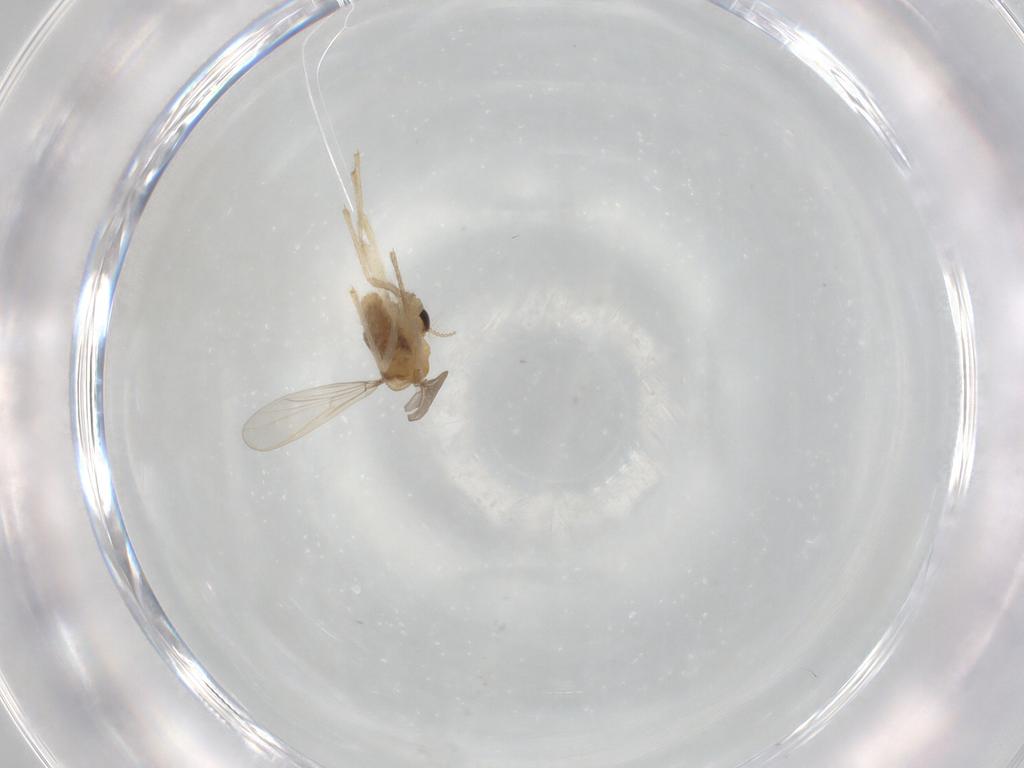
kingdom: Animalia
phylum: Arthropoda
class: Insecta
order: Diptera
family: Chironomidae
